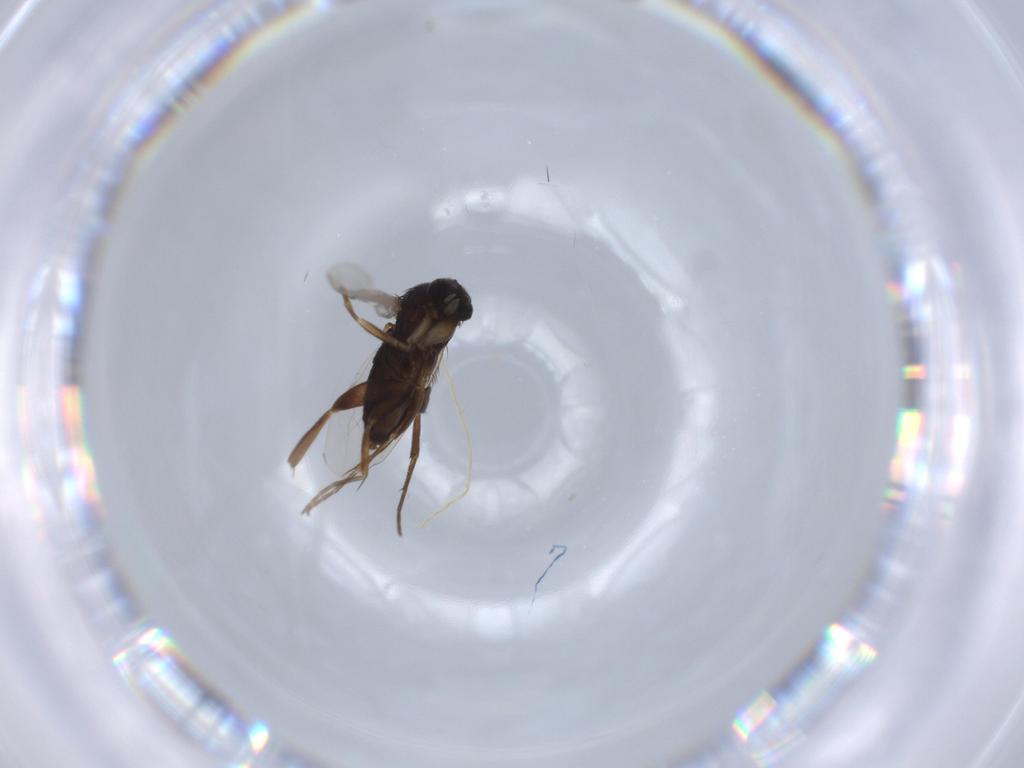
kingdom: Animalia
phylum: Arthropoda
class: Insecta
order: Diptera
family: Phoridae
